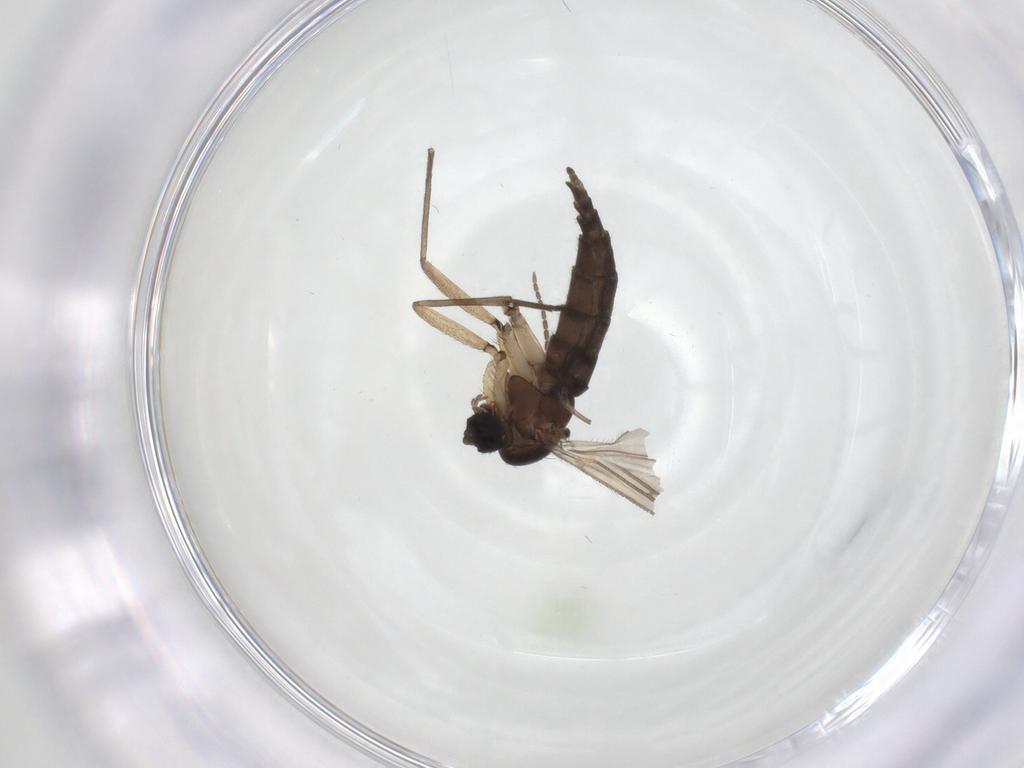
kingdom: Animalia
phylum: Arthropoda
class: Insecta
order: Diptera
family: Sciaridae
